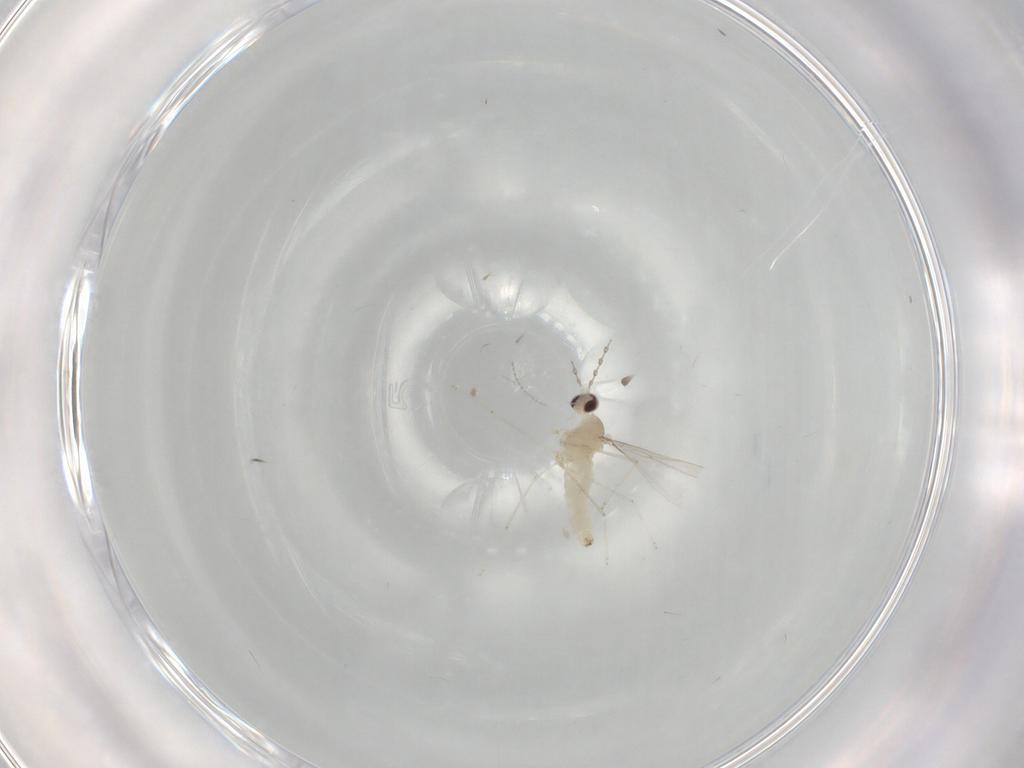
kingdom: Animalia
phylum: Arthropoda
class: Insecta
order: Diptera
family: Cecidomyiidae
